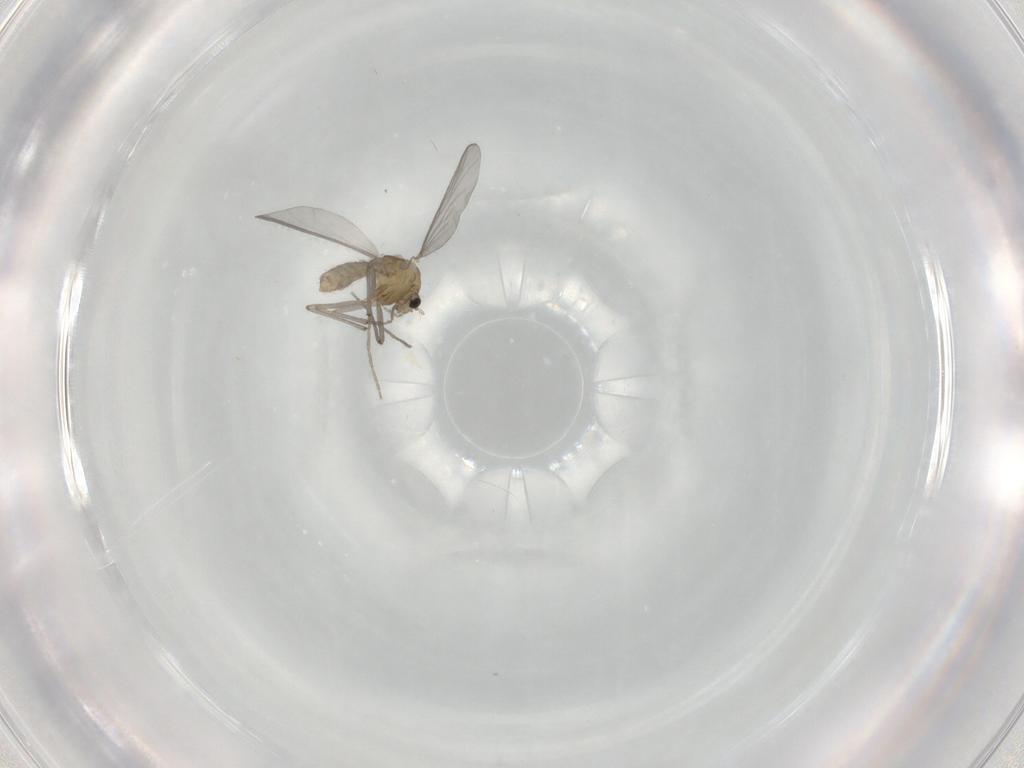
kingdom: Animalia
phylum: Arthropoda
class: Insecta
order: Diptera
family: Chironomidae
